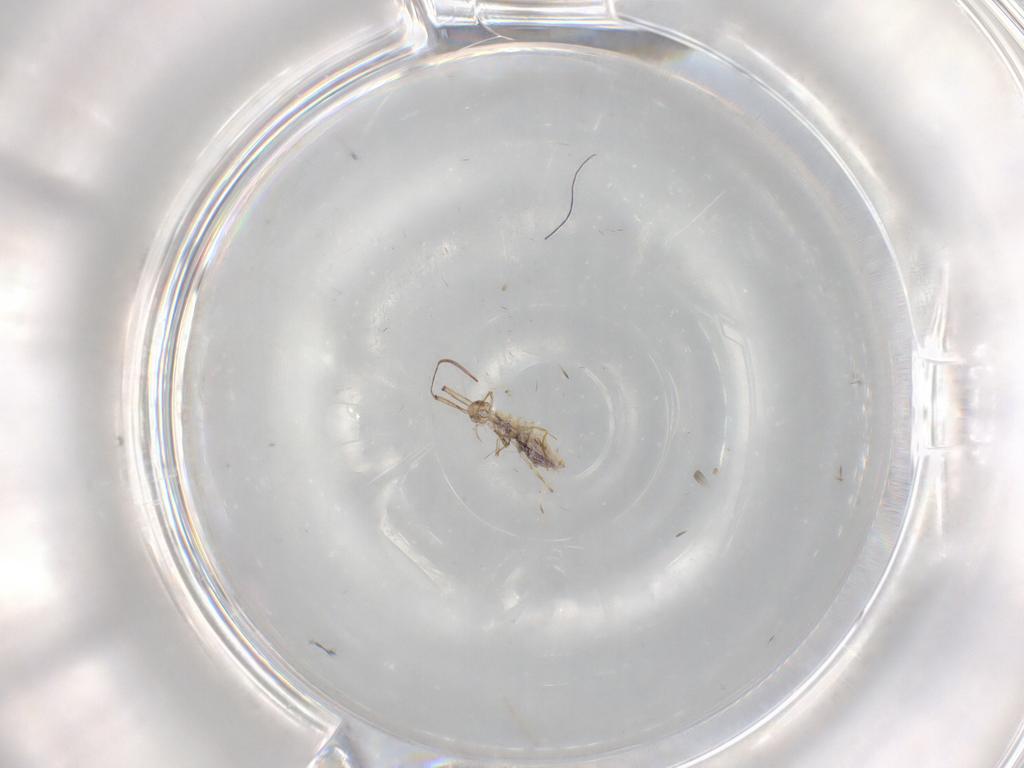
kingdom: Animalia
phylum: Arthropoda
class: Insecta
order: Diptera
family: Cecidomyiidae
